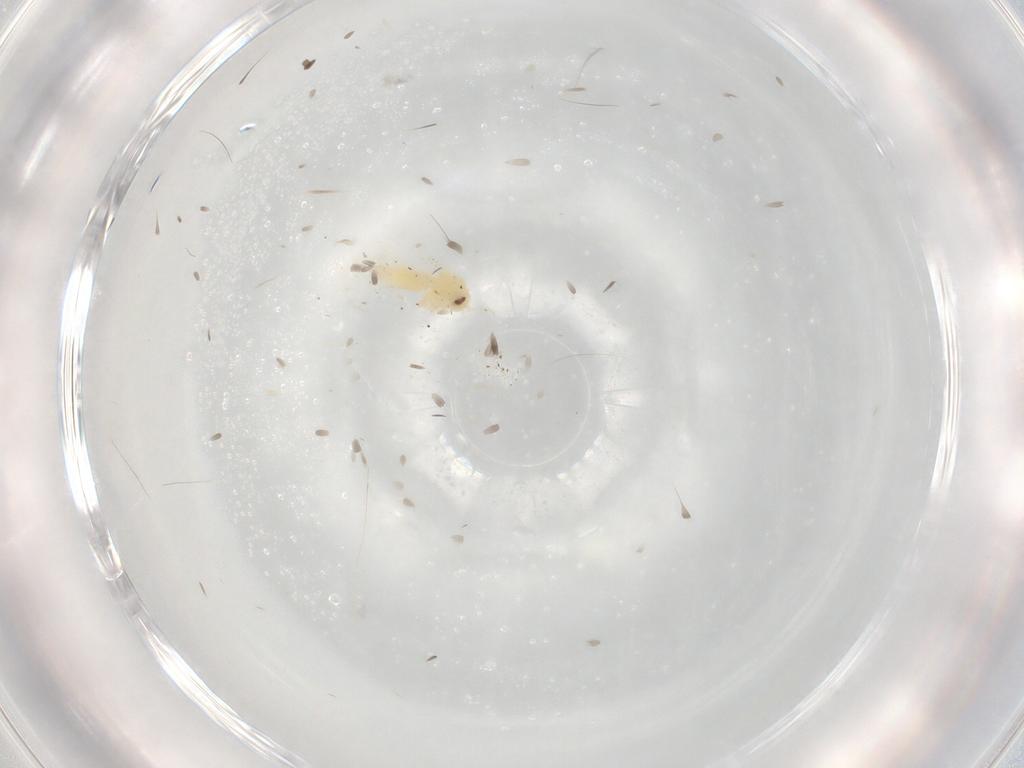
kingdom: Animalia
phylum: Arthropoda
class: Insecta
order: Hemiptera
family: Aleyrodidae
